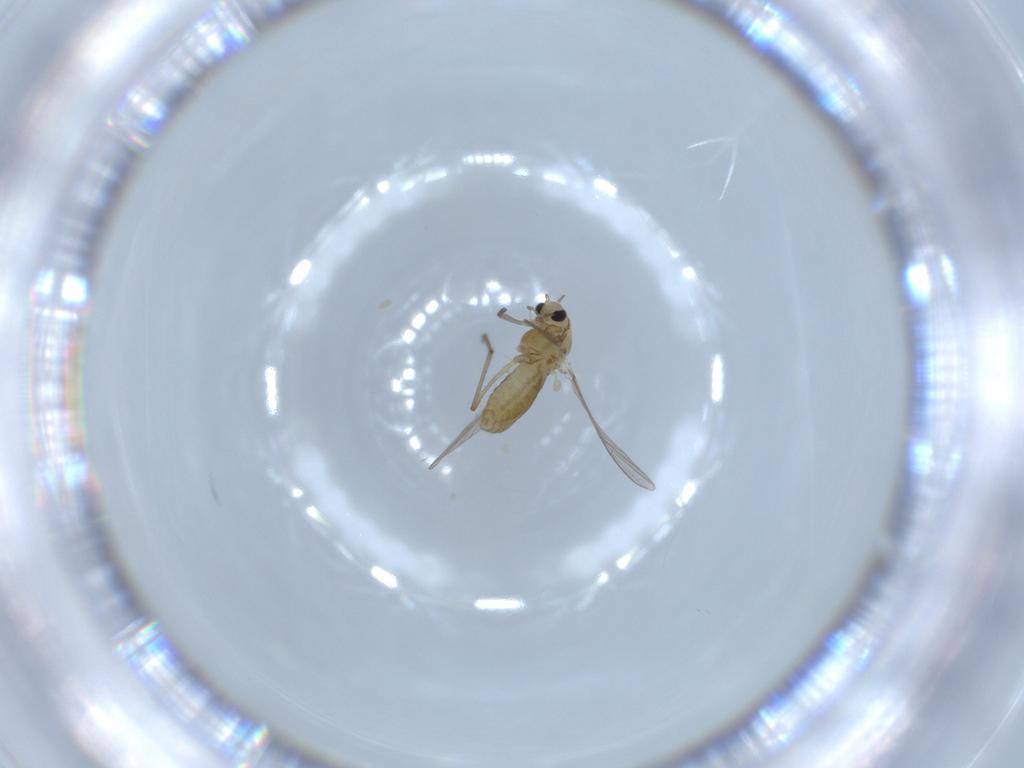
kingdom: Animalia
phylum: Arthropoda
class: Insecta
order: Diptera
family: Chironomidae
